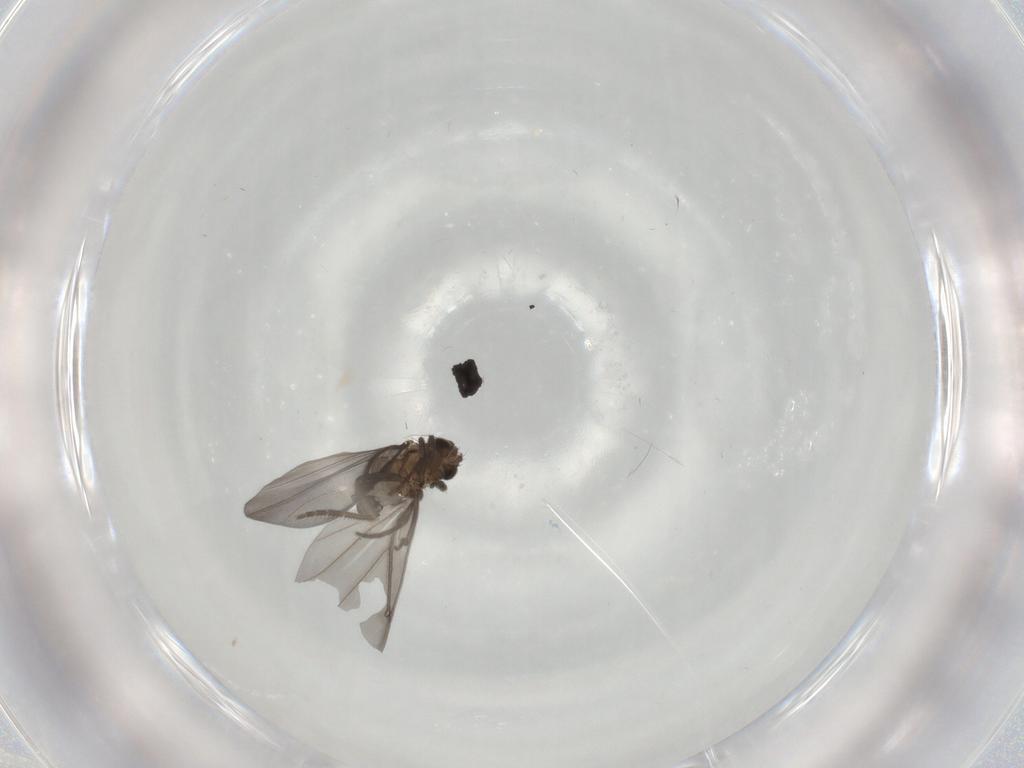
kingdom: Animalia
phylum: Arthropoda
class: Insecta
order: Diptera
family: Phoridae
